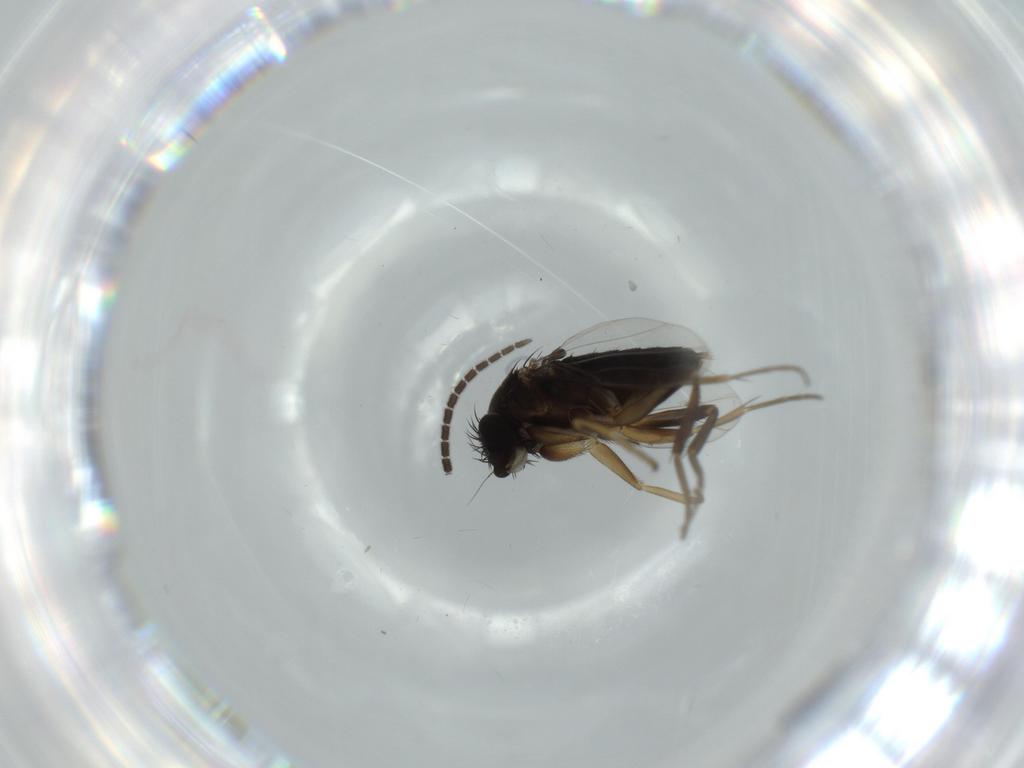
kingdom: Animalia
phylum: Arthropoda
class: Insecta
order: Diptera
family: Phoridae
